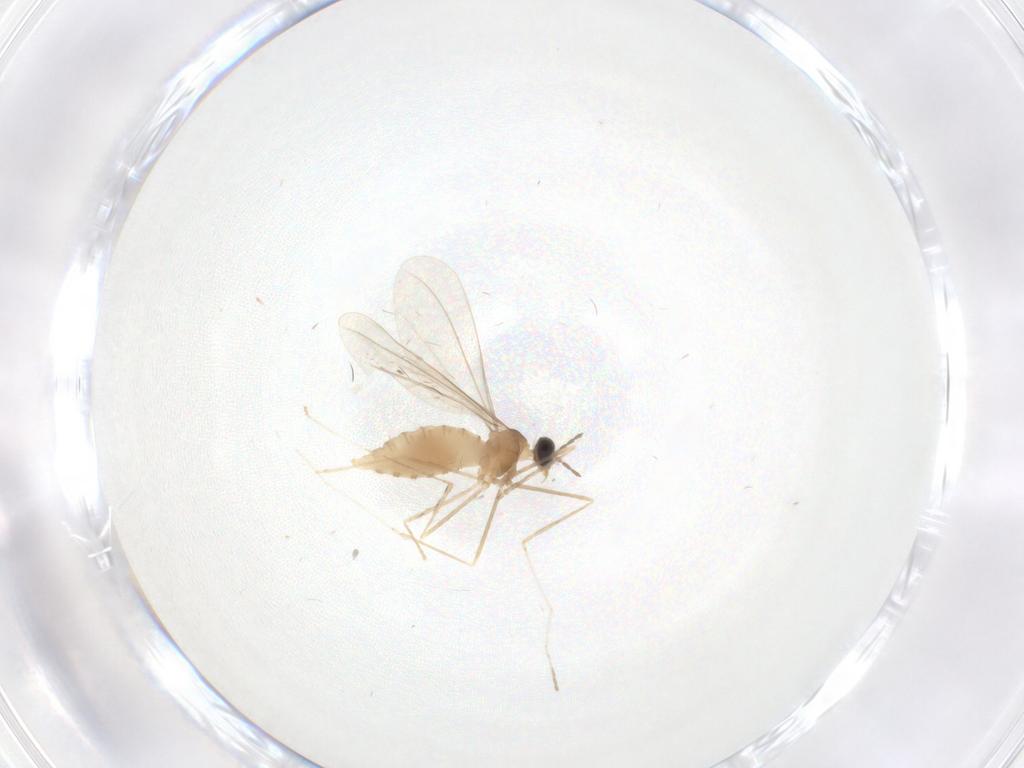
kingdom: Animalia
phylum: Arthropoda
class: Insecta
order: Diptera
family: Cecidomyiidae
